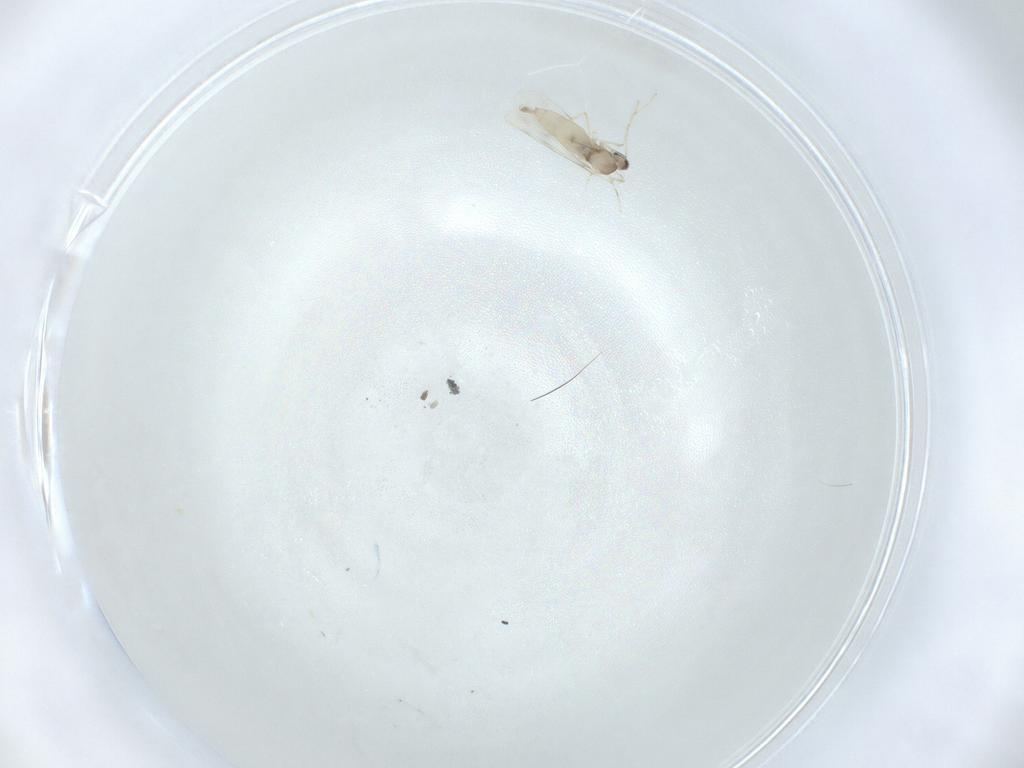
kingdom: Animalia
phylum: Arthropoda
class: Insecta
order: Diptera
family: Cecidomyiidae
